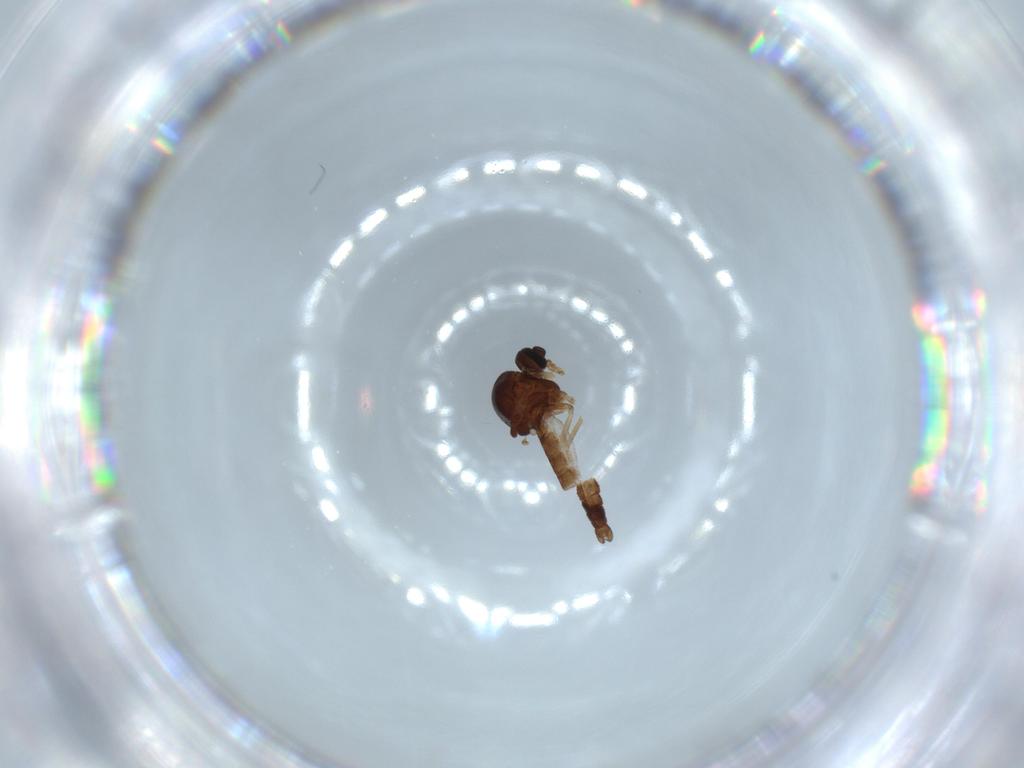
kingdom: Animalia
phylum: Arthropoda
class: Insecta
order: Diptera
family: Ceratopogonidae
